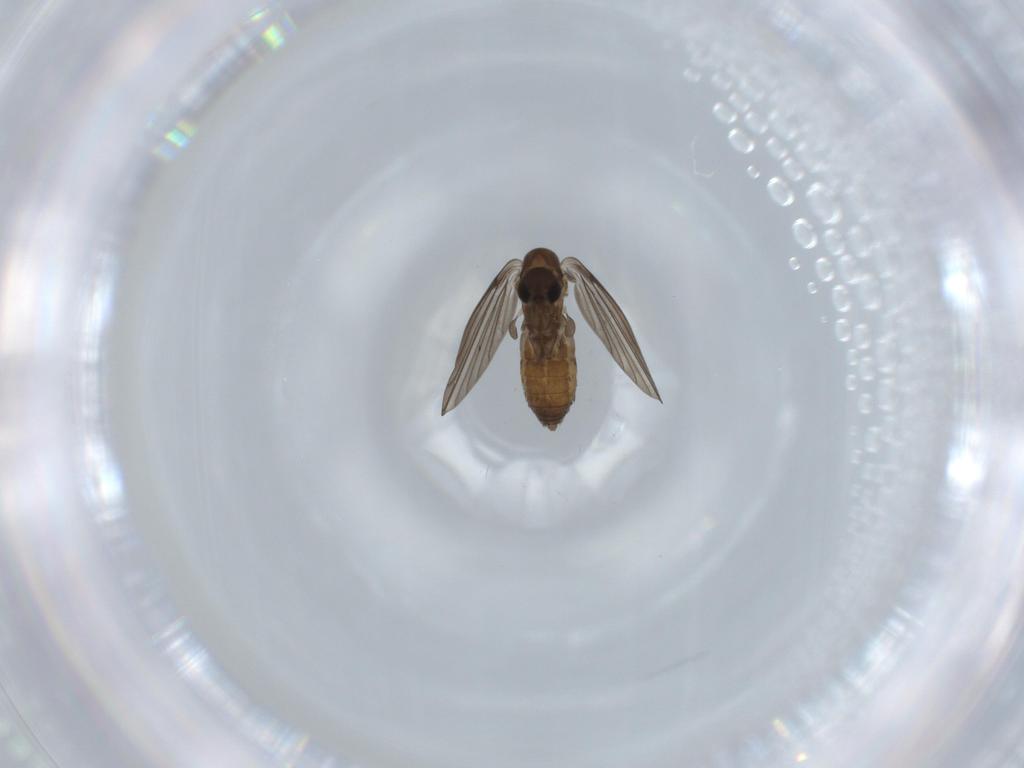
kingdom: Animalia
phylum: Arthropoda
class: Insecta
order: Diptera
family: Psychodidae
